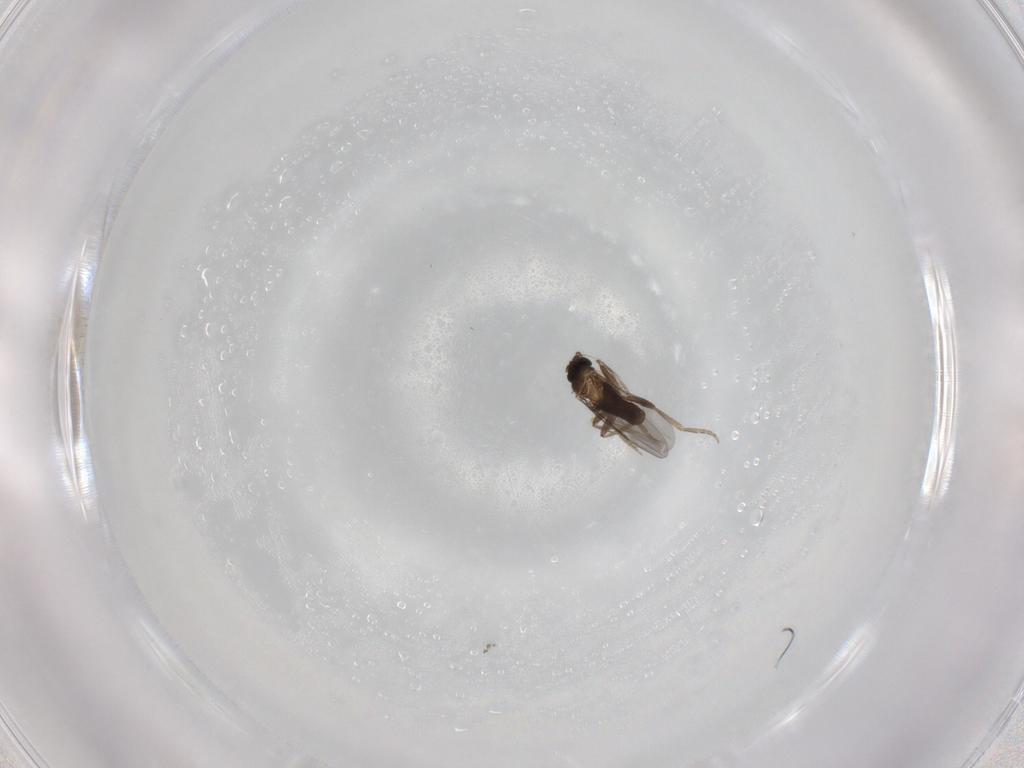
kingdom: Animalia
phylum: Arthropoda
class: Insecta
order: Diptera
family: Phoridae
